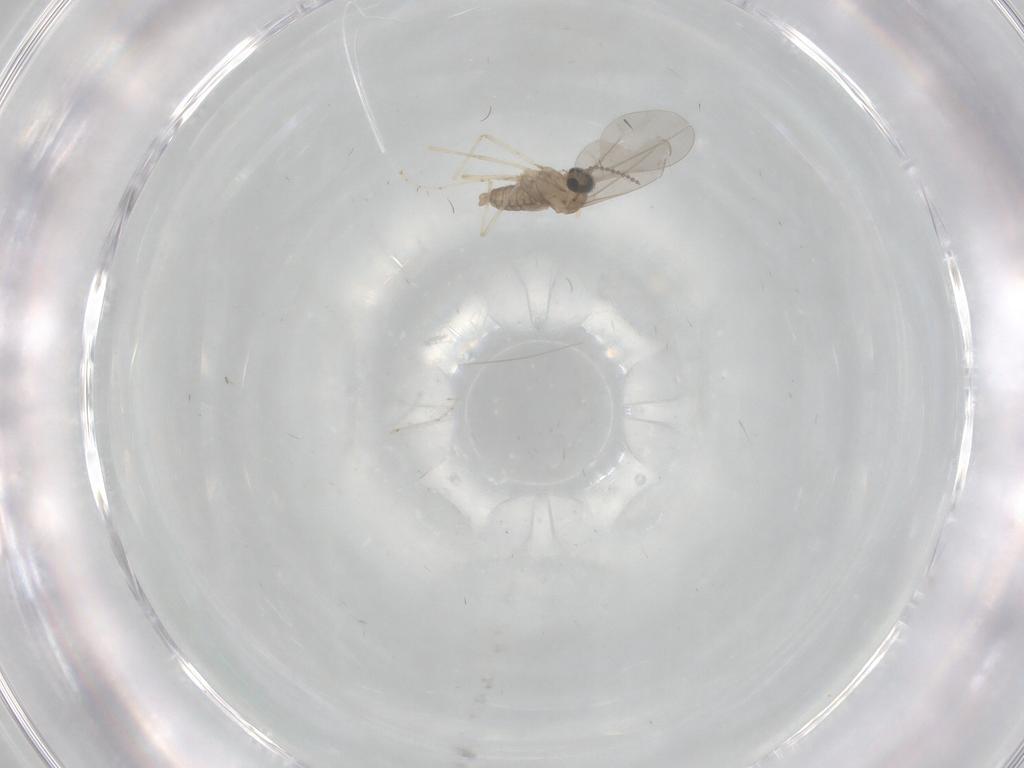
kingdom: Animalia
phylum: Arthropoda
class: Insecta
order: Diptera
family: Cecidomyiidae
